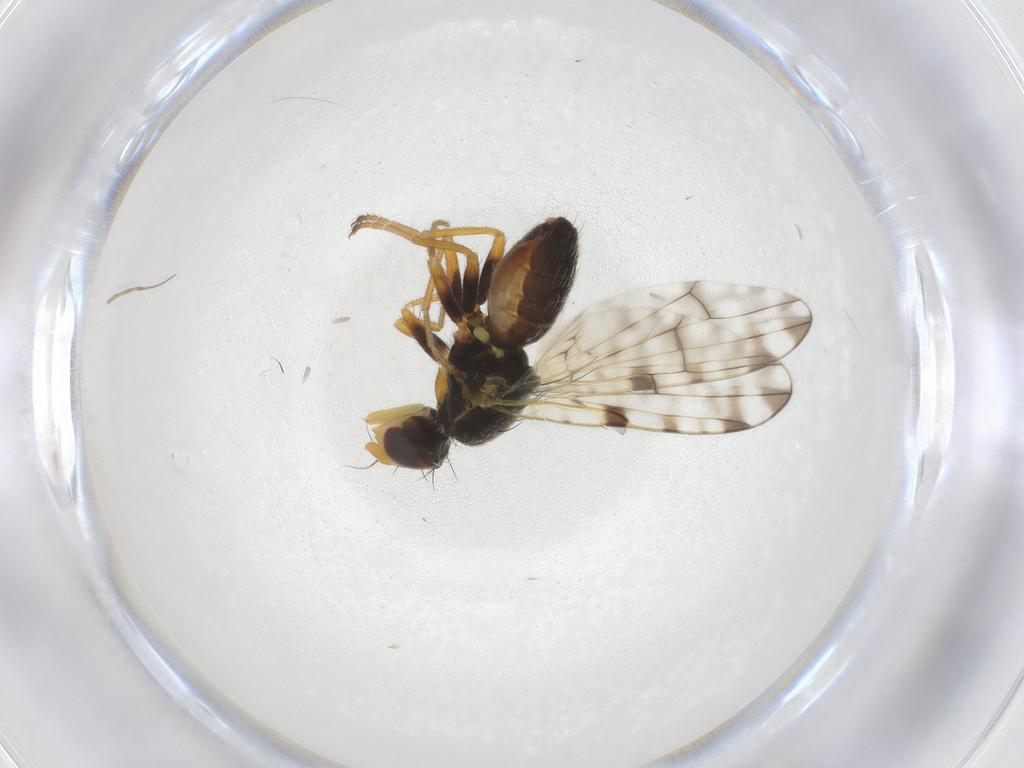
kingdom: Animalia
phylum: Arthropoda
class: Insecta
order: Diptera
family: Tephritidae
